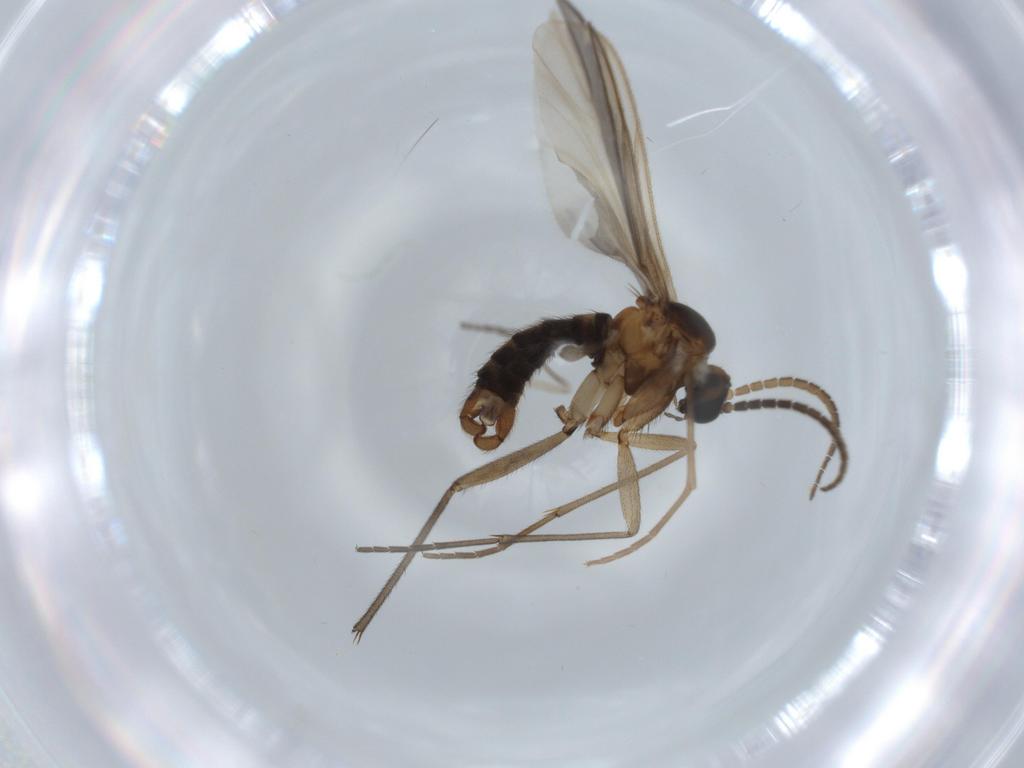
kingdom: Animalia
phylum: Arthropoda
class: Insecta
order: Diptera
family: Sciaridae
